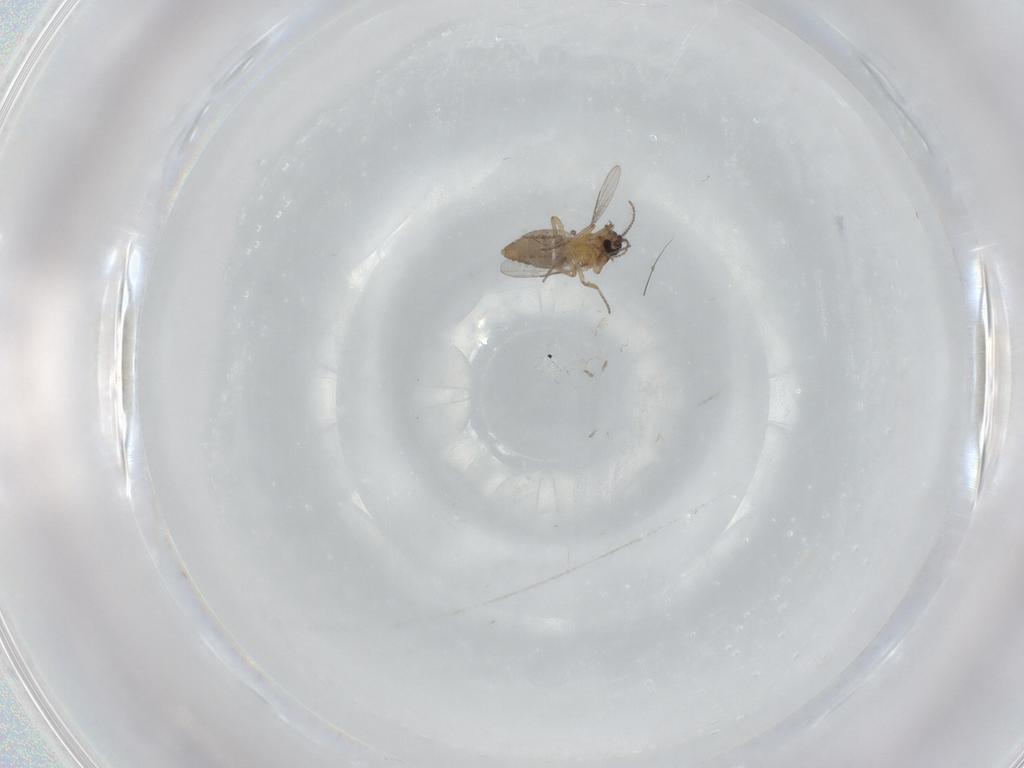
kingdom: Animalia
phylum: Arthropoda
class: Insecta
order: Diptera
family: Ceratopogonidae
